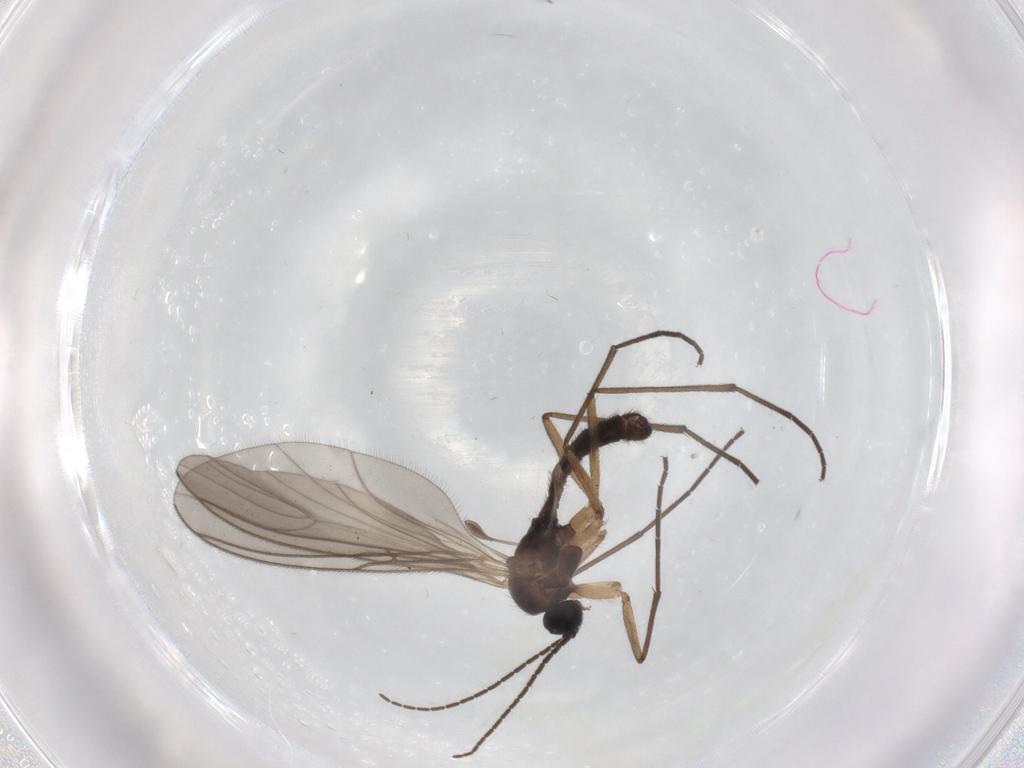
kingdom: Animalia
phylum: Arthropoda
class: Insecta
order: Diptera
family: Sciaridae
